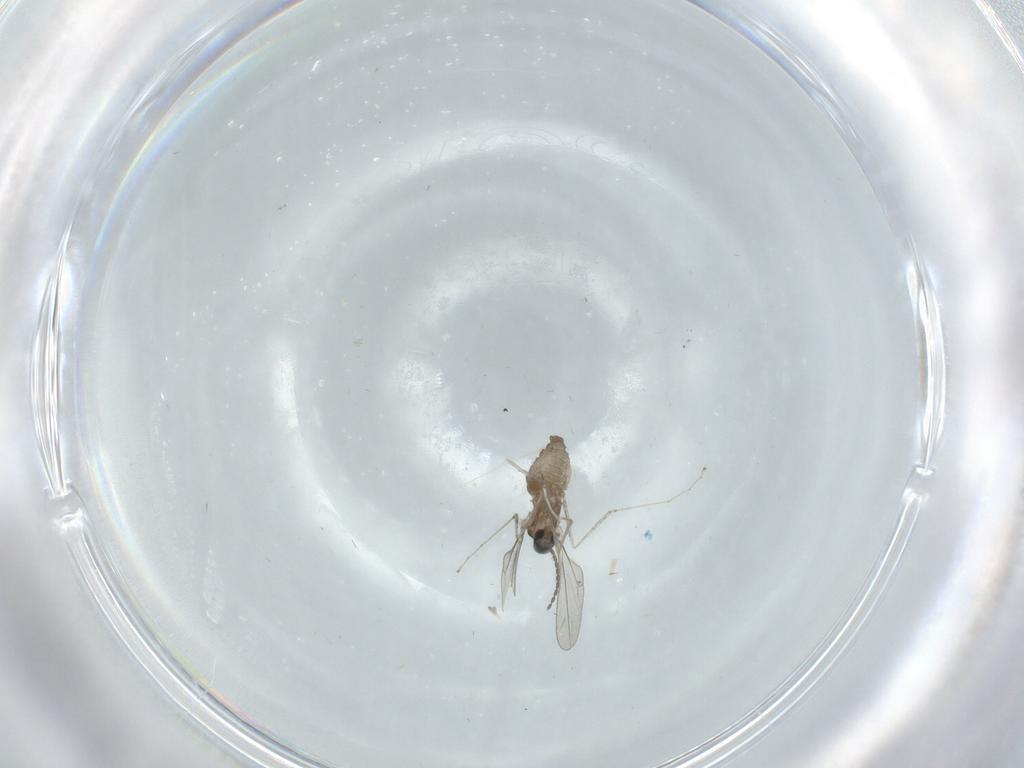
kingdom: Animalia
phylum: Arthropoda
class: Insecta
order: Diptera
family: Cecidomyiidae
